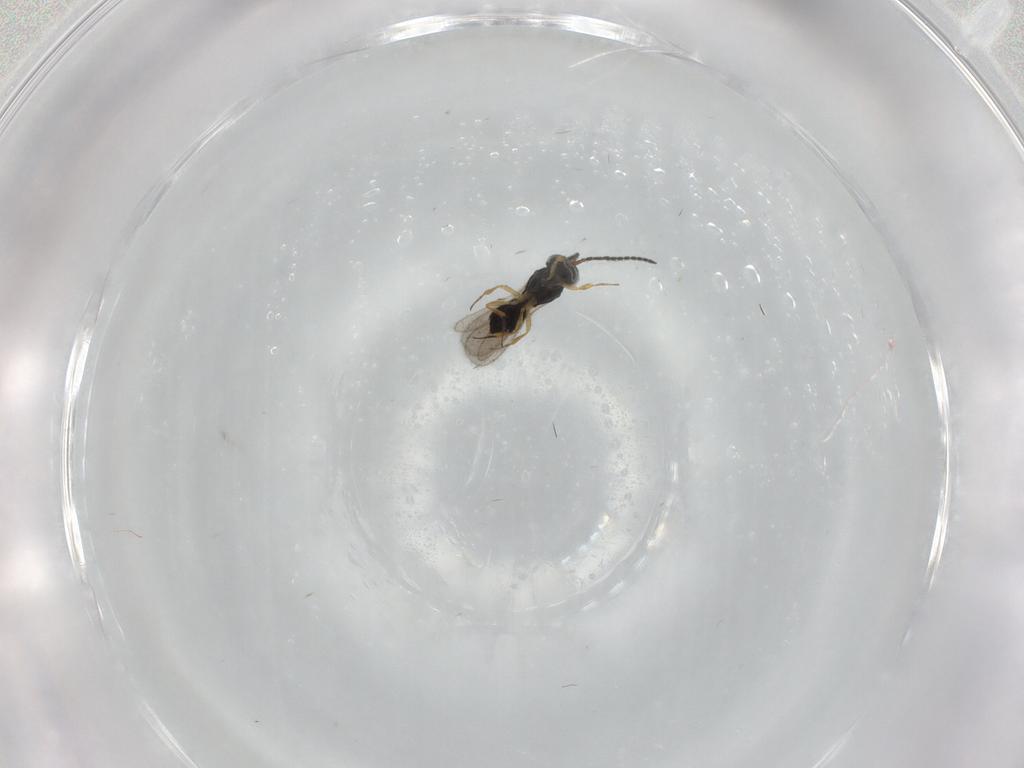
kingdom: Animalia
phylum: Arthropoda
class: Insecta
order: Hymenoptera
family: Scelionidae
